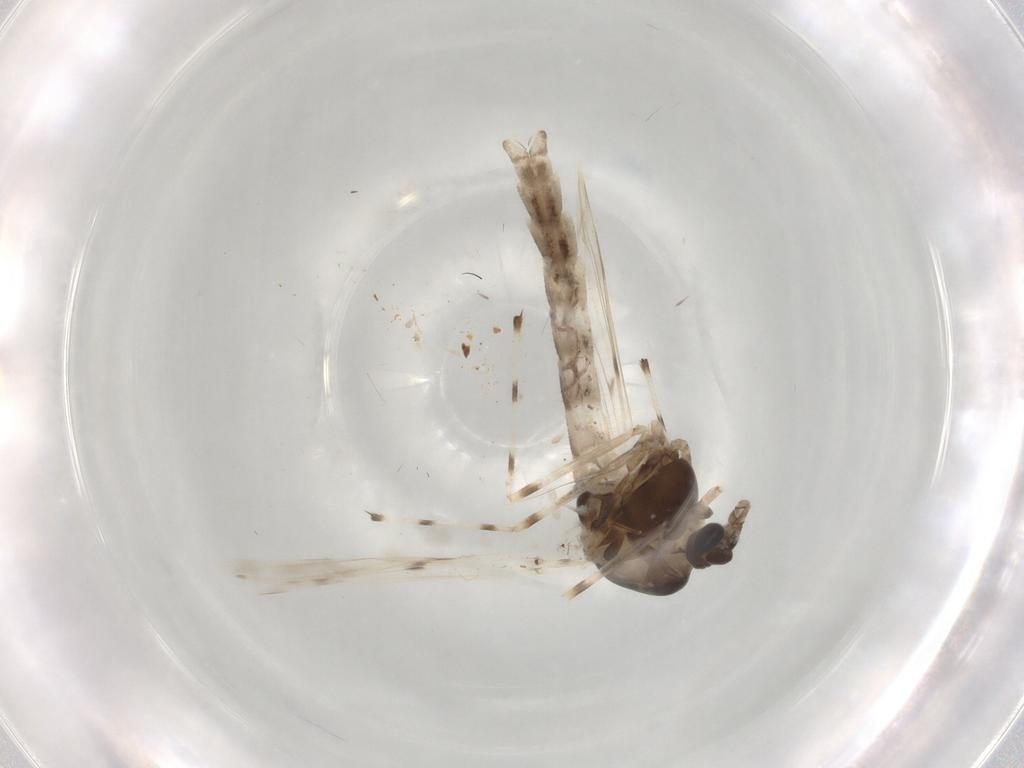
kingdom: Animalia
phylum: Arthropoda
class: Insecta
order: Diptera
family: Chironomidae
